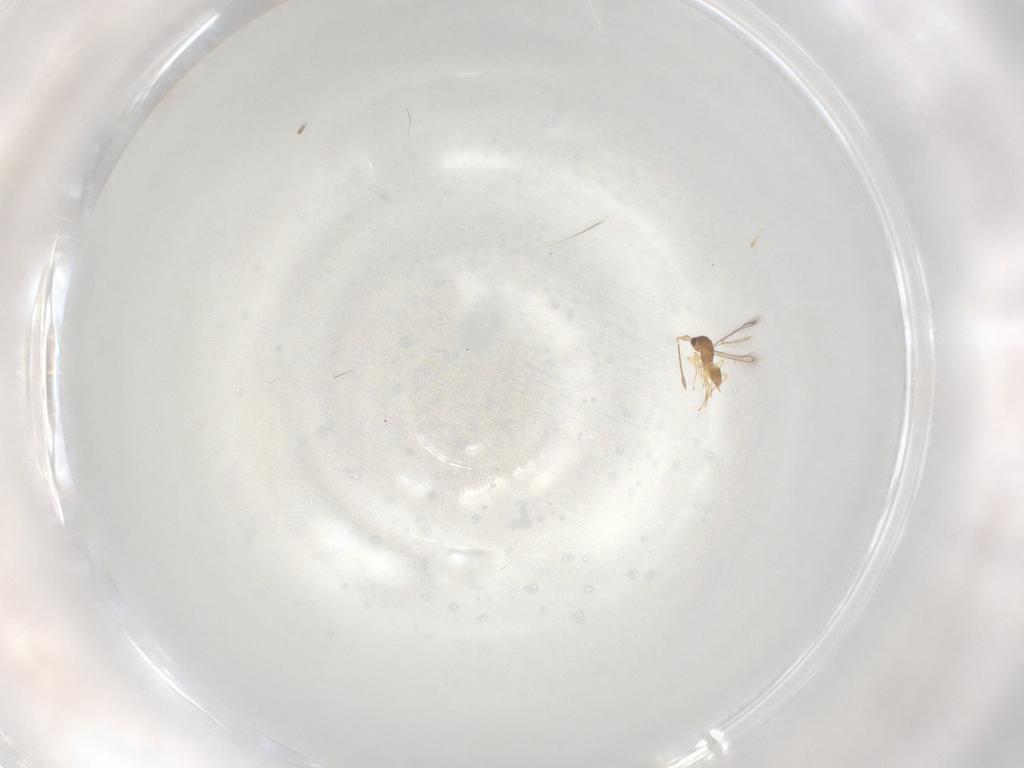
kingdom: Animalia
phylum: Arthropoda
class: Insecta
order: Hymenoptera
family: Mymaridae
